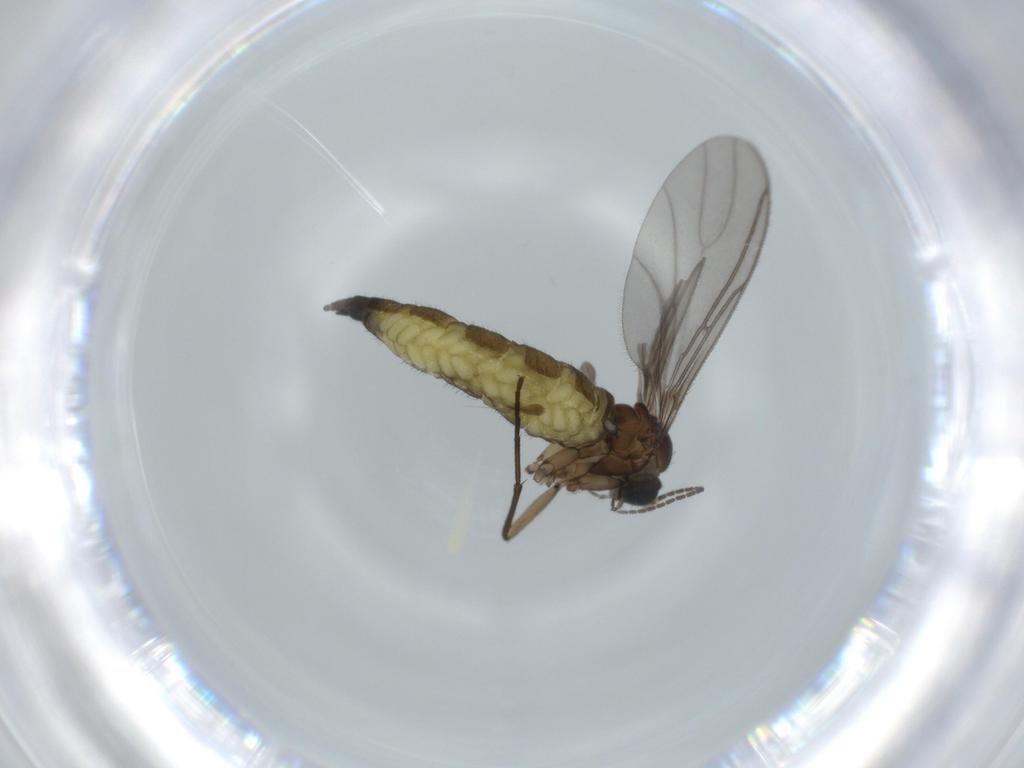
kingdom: Animalia
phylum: Arthropoda
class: Insecta
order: Diptera
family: Sciaridae
